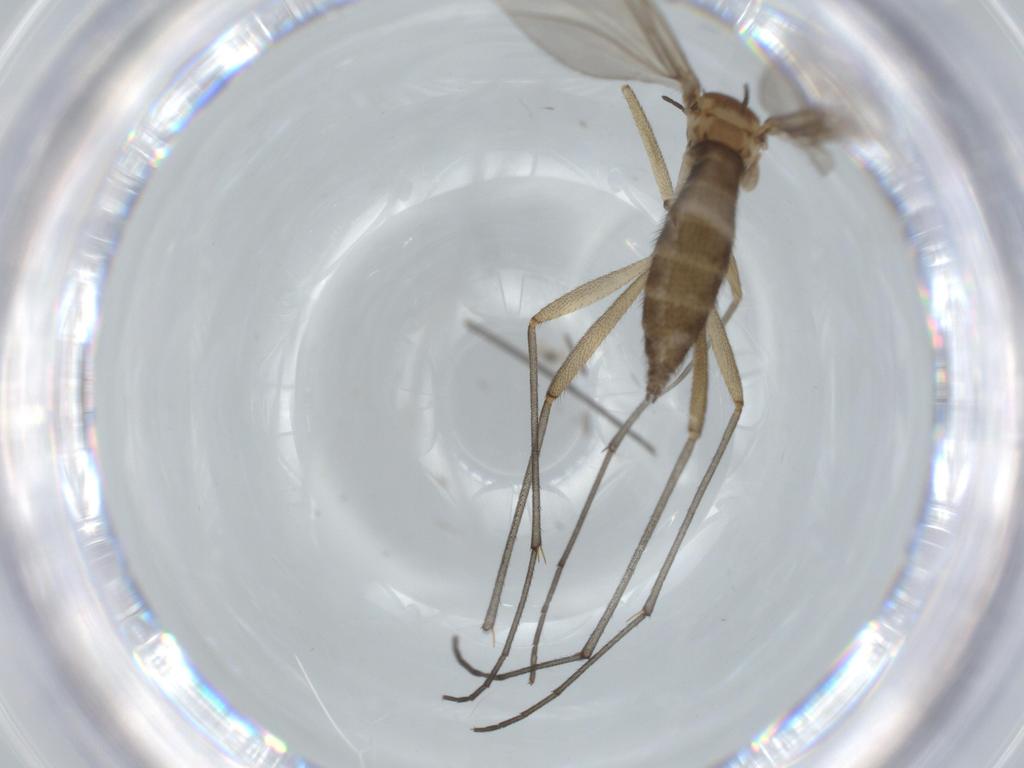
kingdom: Animalia
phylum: Arthropoda
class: Insecta
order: Diptera
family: Sciaridae
